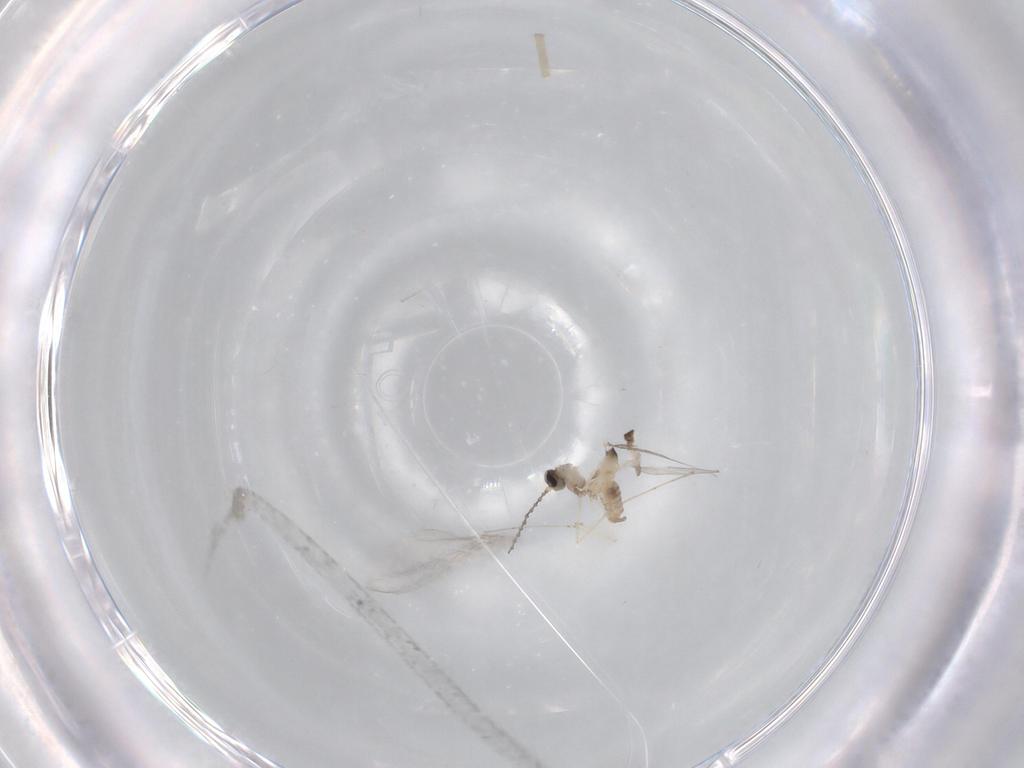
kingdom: Animalia
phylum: Arthropoda
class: Insecta
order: Diptera
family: Cecidomyiidae
